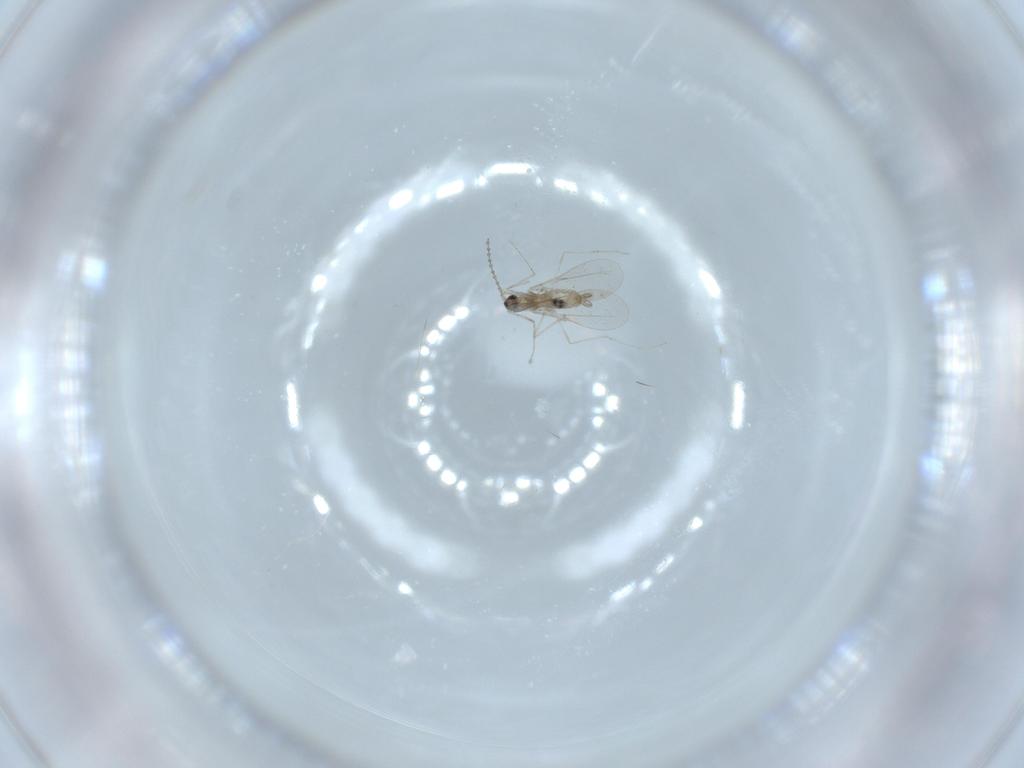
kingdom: Animalia
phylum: Arthropoda
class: Insecta
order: Diptera
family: Cecidomyiidae
